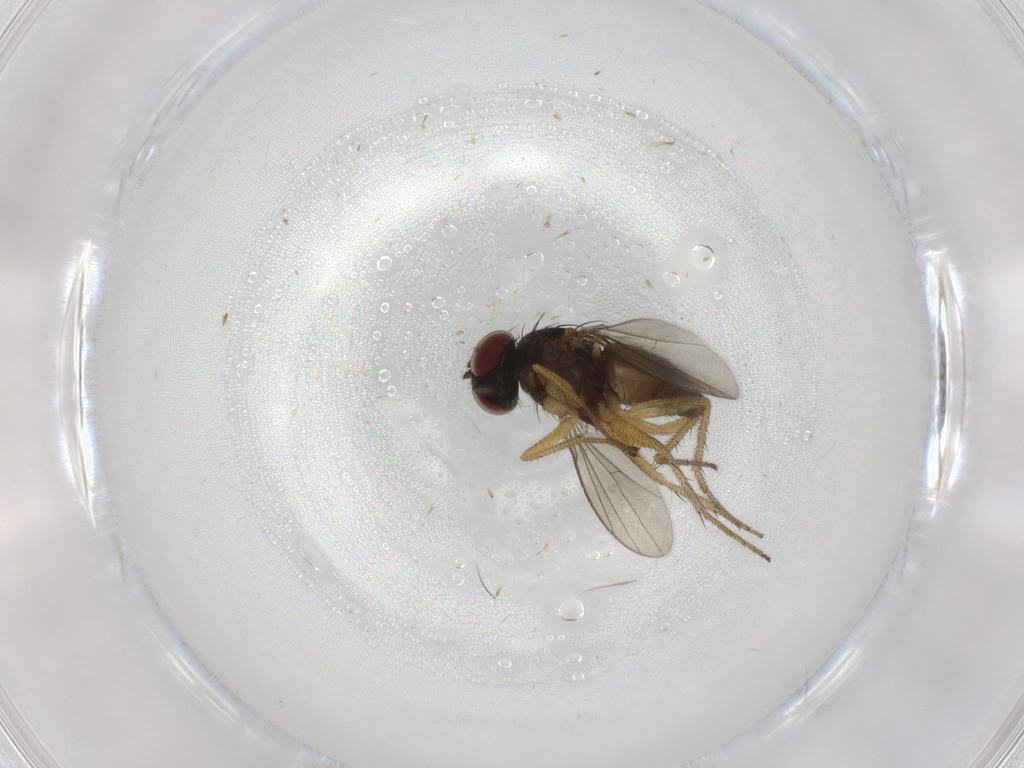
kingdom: Animalia
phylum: Arthropoda
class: Insecta
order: Diptera
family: Dolichopodidae
